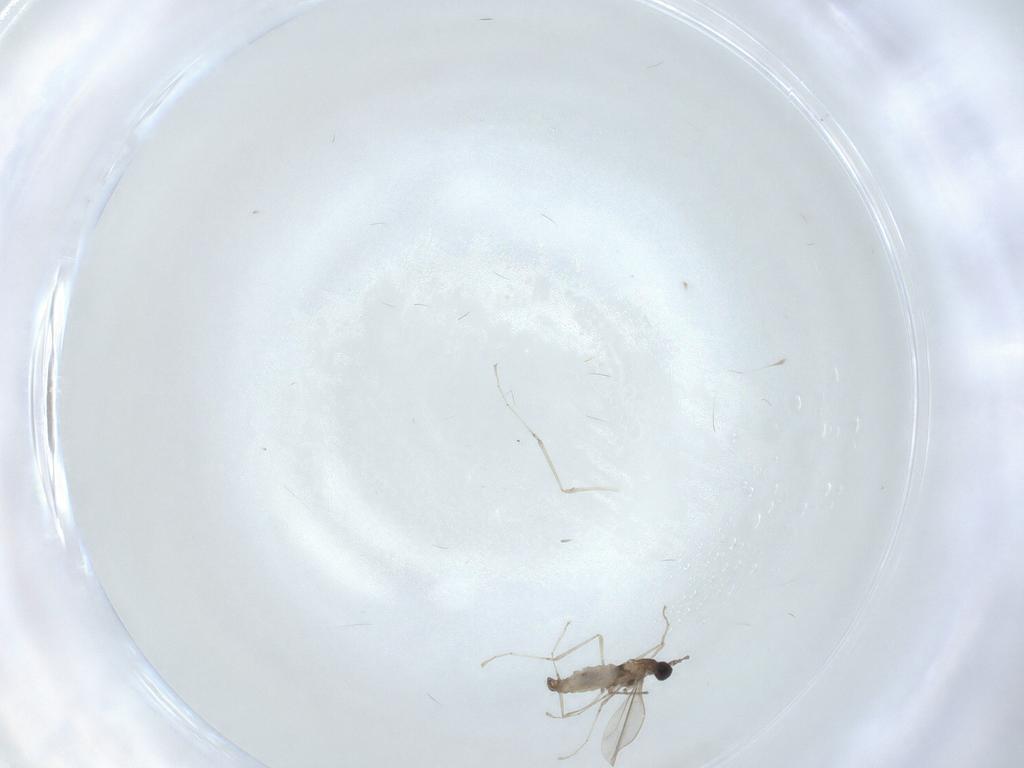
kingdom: Animalia
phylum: Arthropoda
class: Insecta
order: Diptera
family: Cecidomyiidae
